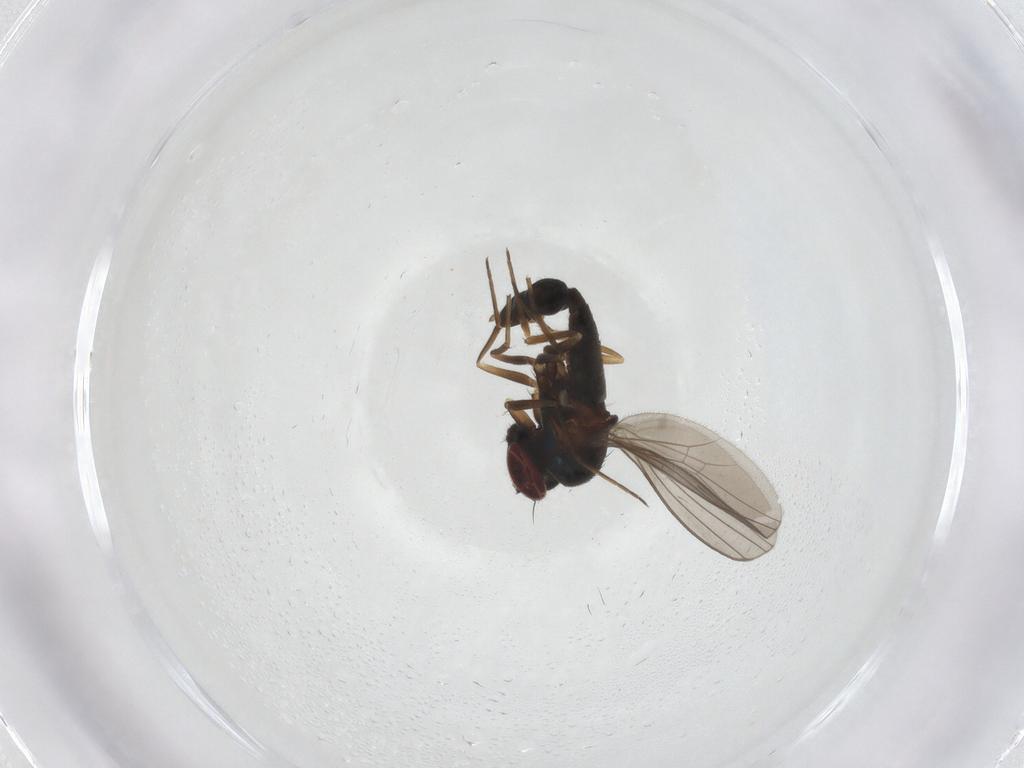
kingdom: Animalia
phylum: Arthropoda
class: Insecta
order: Diptera
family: Dolichopodidae
